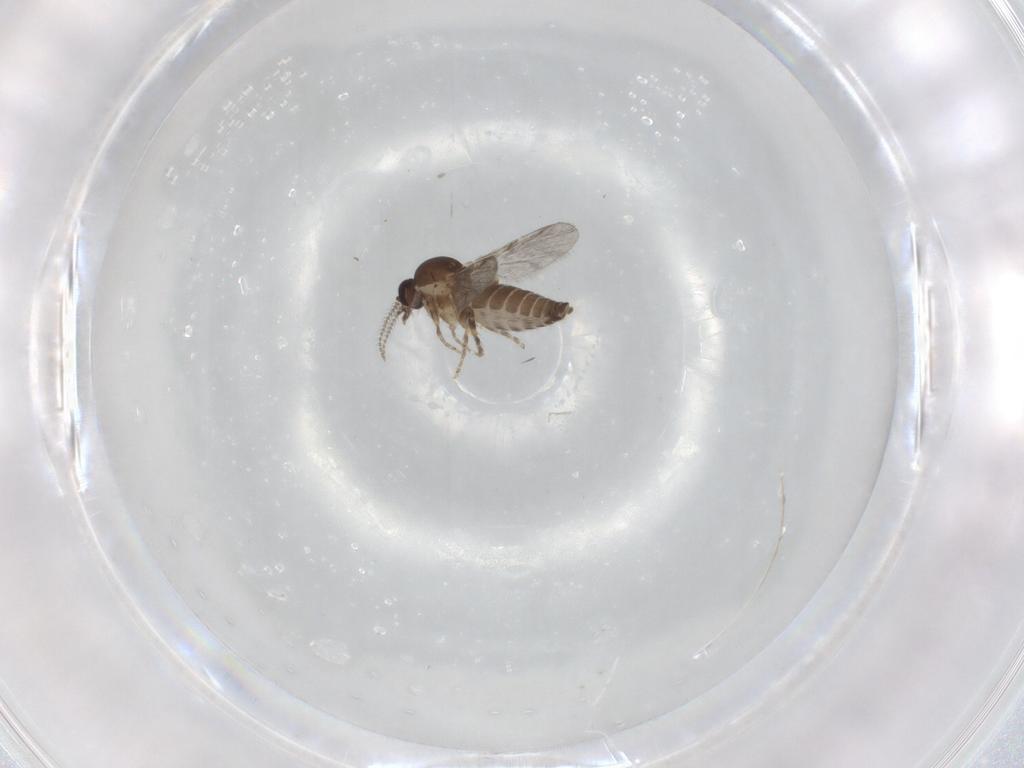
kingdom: Animalia
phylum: Arthropoda
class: Insecta
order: Diptera
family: Ceratopogonidae
